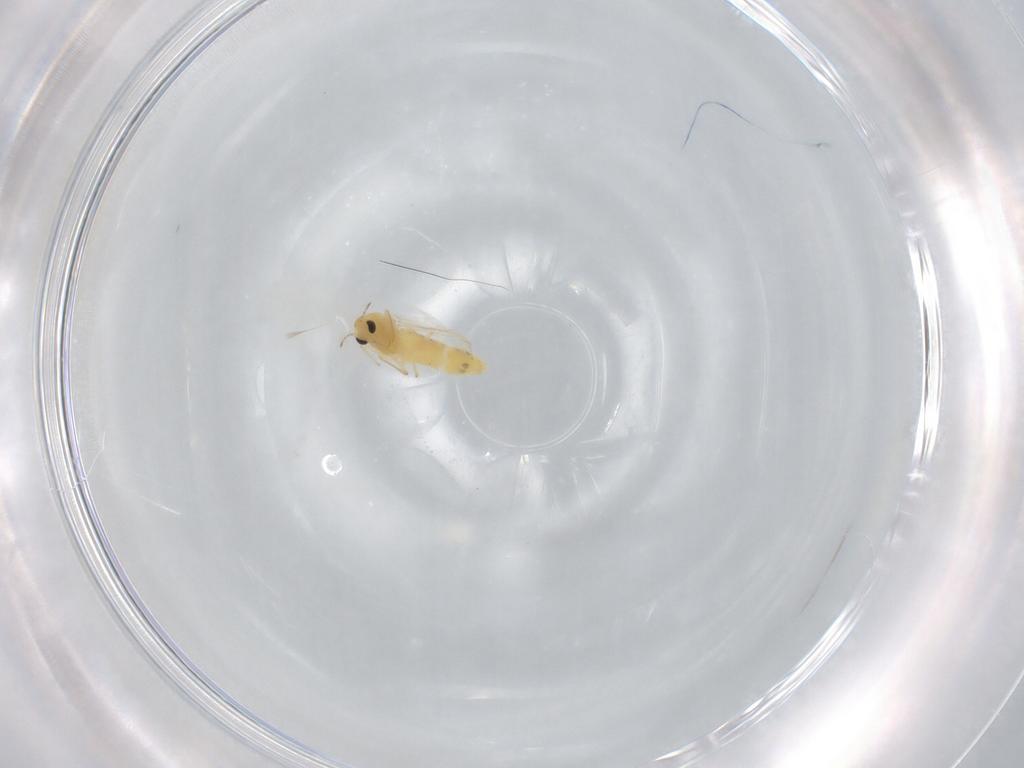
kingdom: Animalia
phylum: Arthropoda
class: Insecta
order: Diptera
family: Chironomidae
